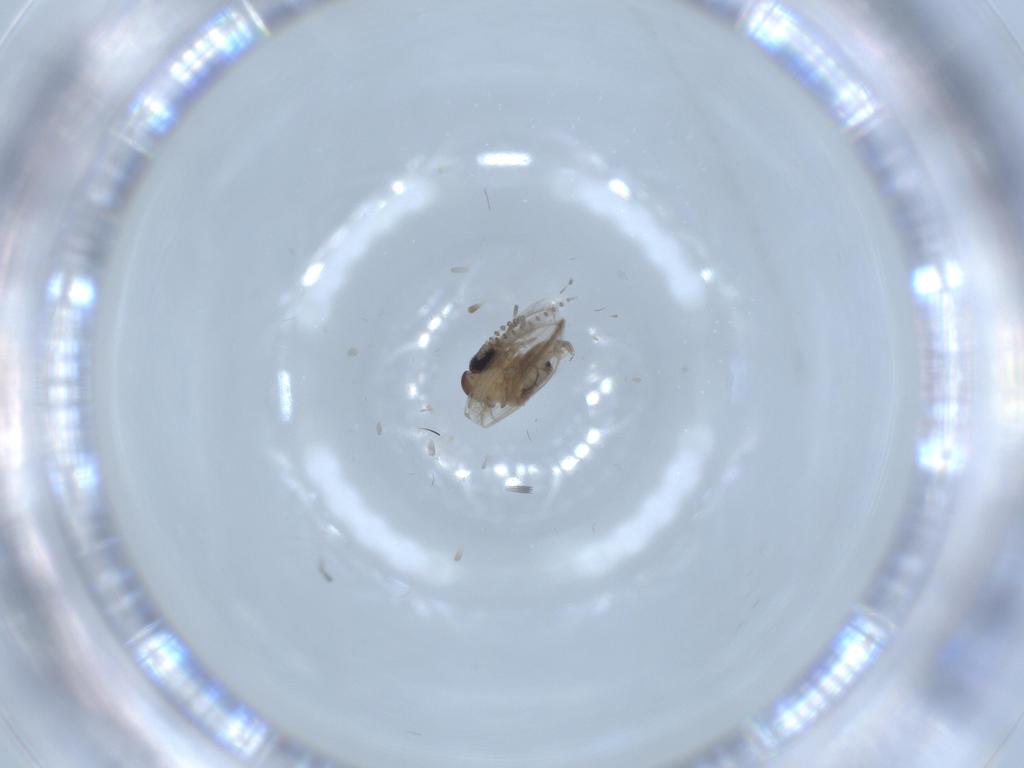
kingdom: Animalia
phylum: Arthropoda
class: Insecta
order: Diptera
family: Psychodidae
